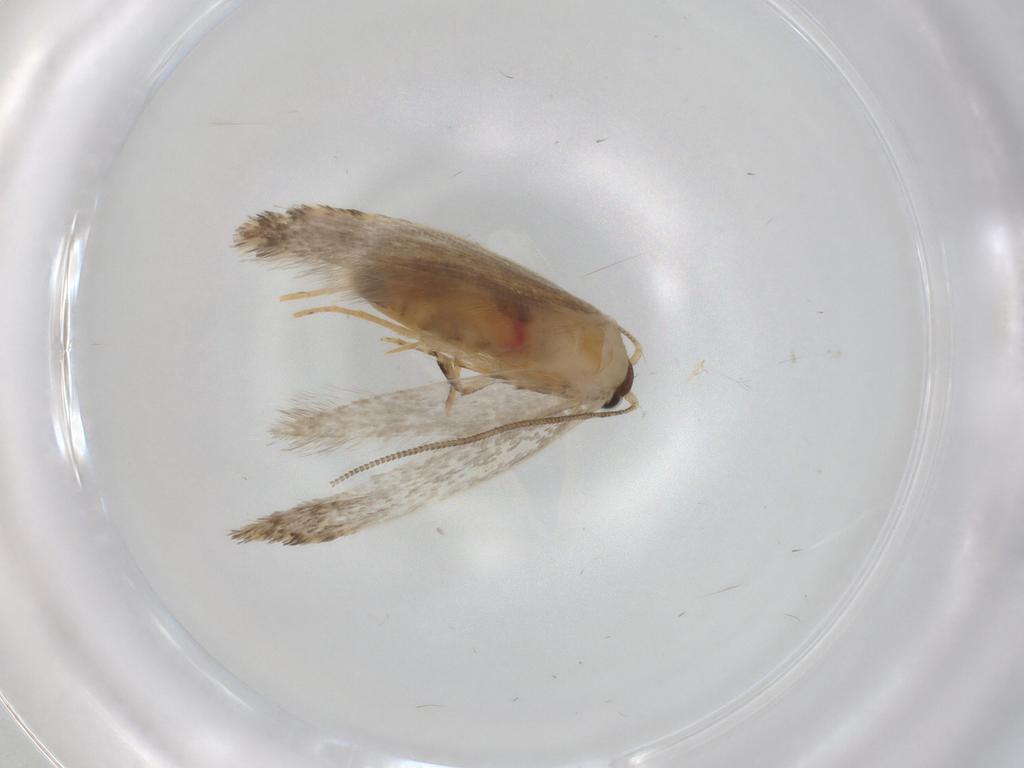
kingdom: Animalia
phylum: Arthropoda
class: Insecta
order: Lepidoptera
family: Tineidae
